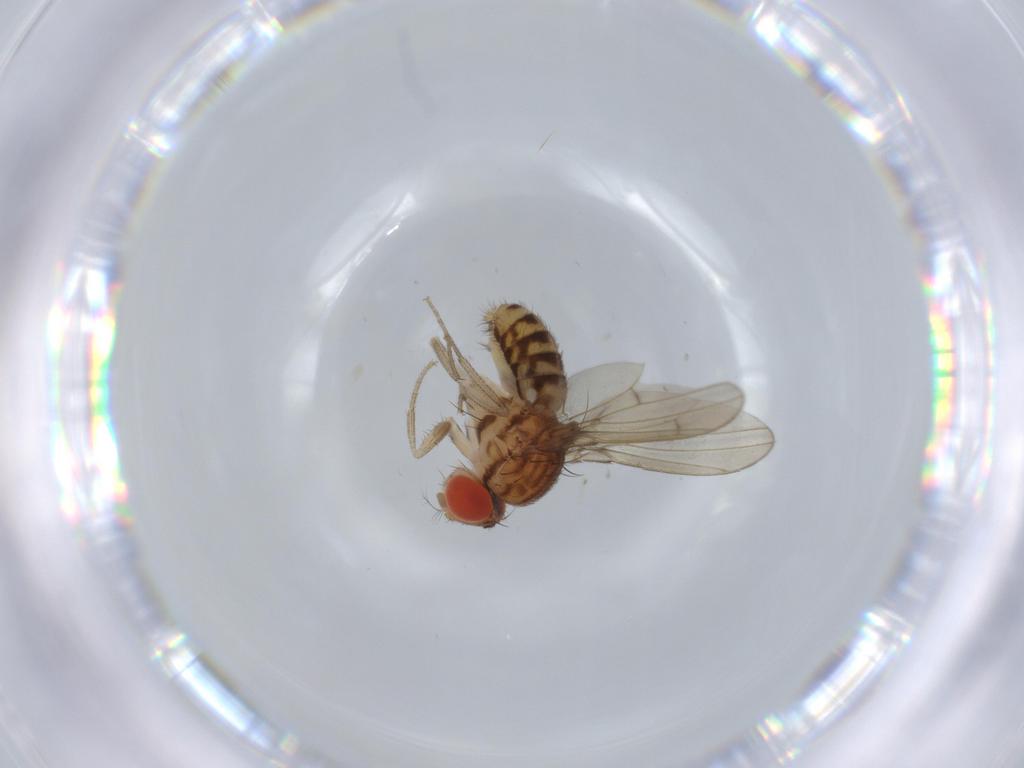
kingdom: Animalia
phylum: Arthropoda
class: Insecta
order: Diptera
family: Drosophilidae
